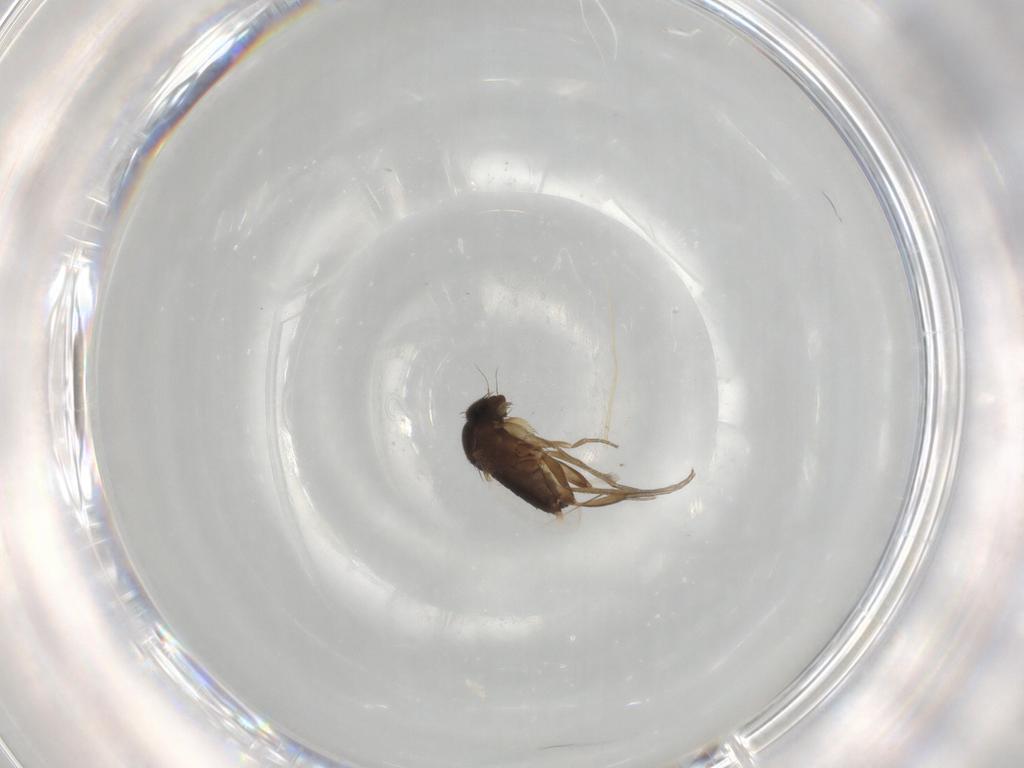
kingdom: Animalia
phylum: Arthropoda
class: Insecta
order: Diptera
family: Phoridae
